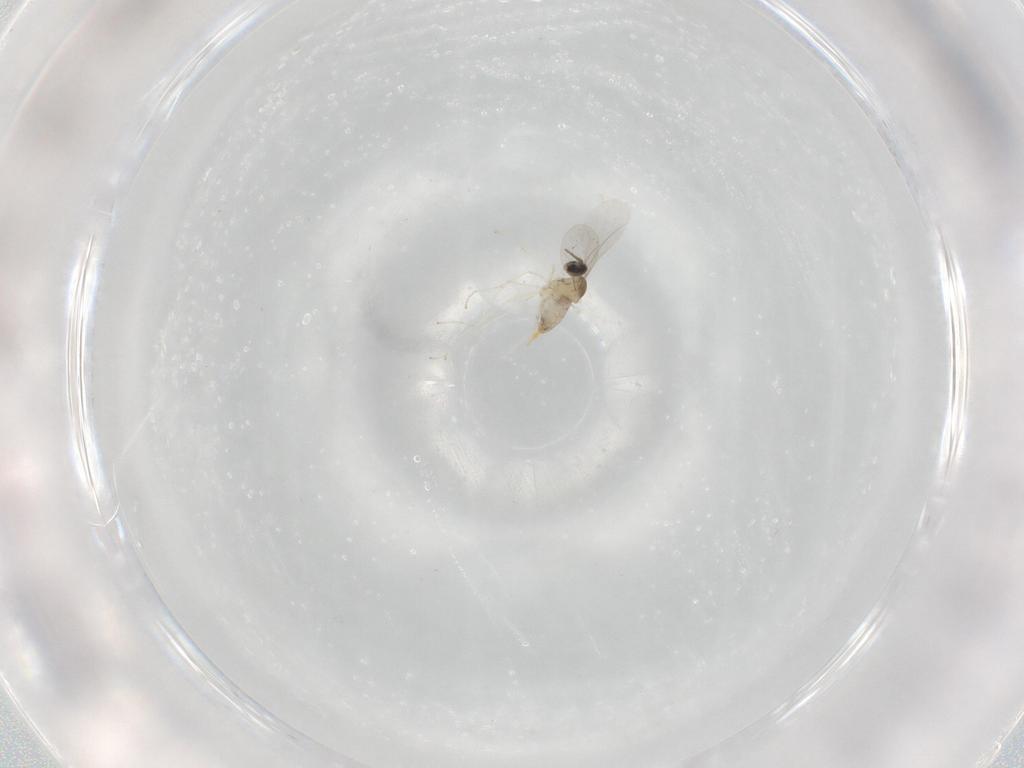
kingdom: Animalia
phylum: Arthropoda
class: Insecta
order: Diptera
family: Cecidomyiidae
